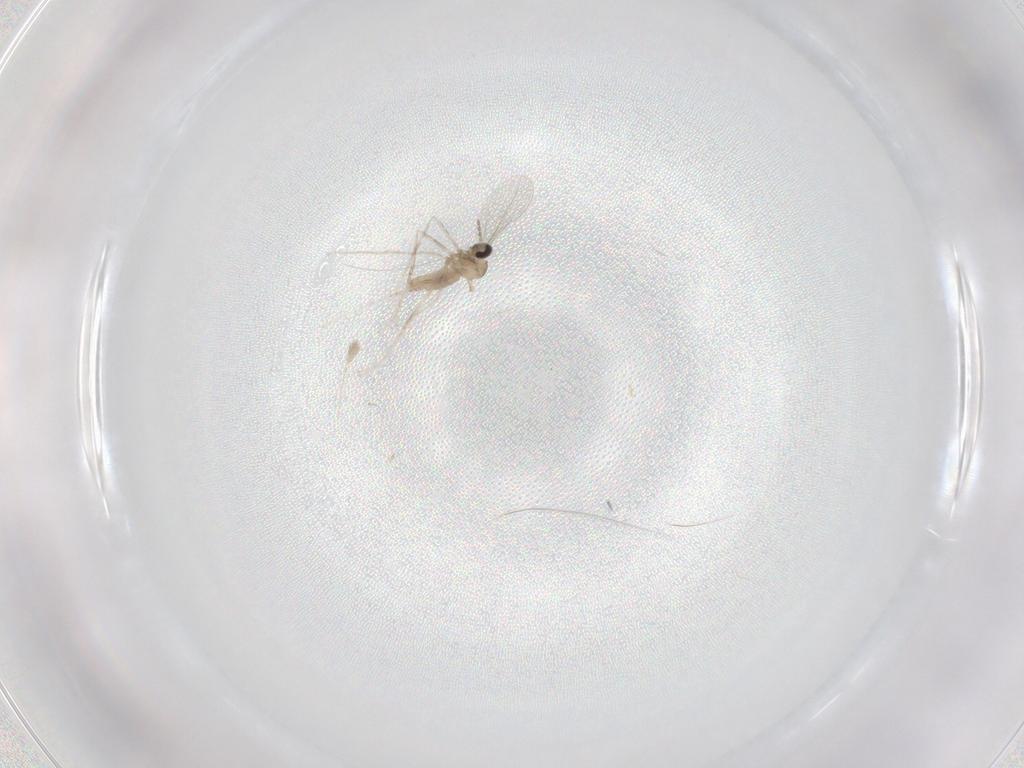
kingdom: Animalia
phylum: Arthropoda
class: Insecta
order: Diptera
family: Cecidomyiidae
